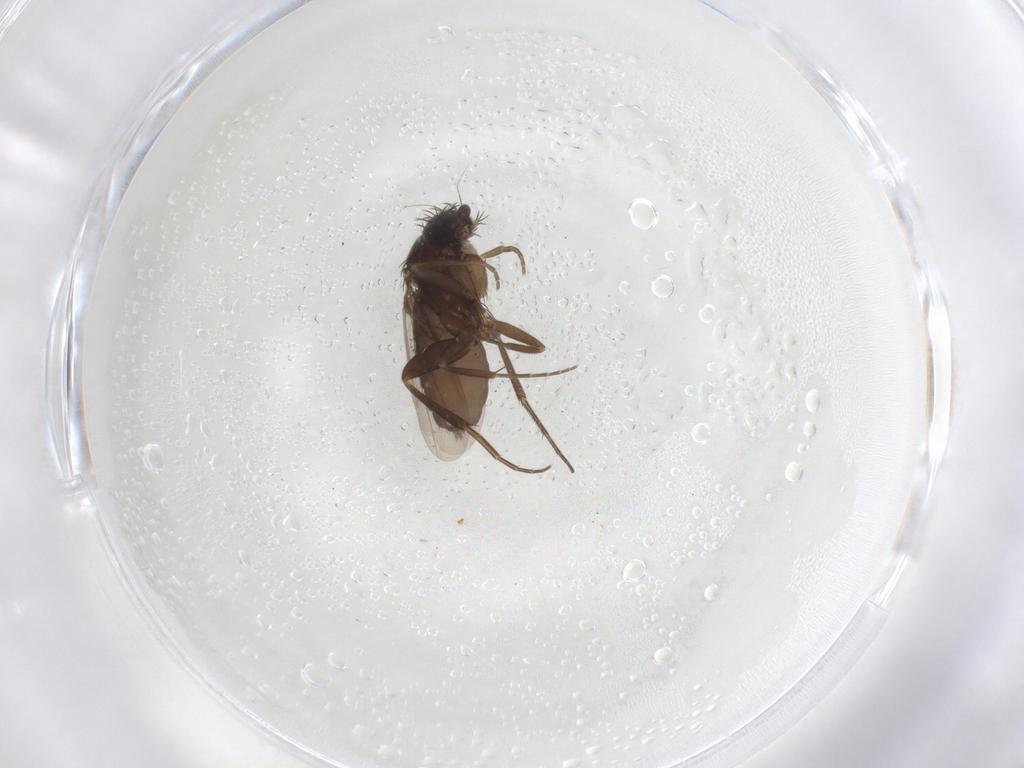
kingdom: Animalia
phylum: Arthropoda
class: Insecta
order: Diptera
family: Phoridae
